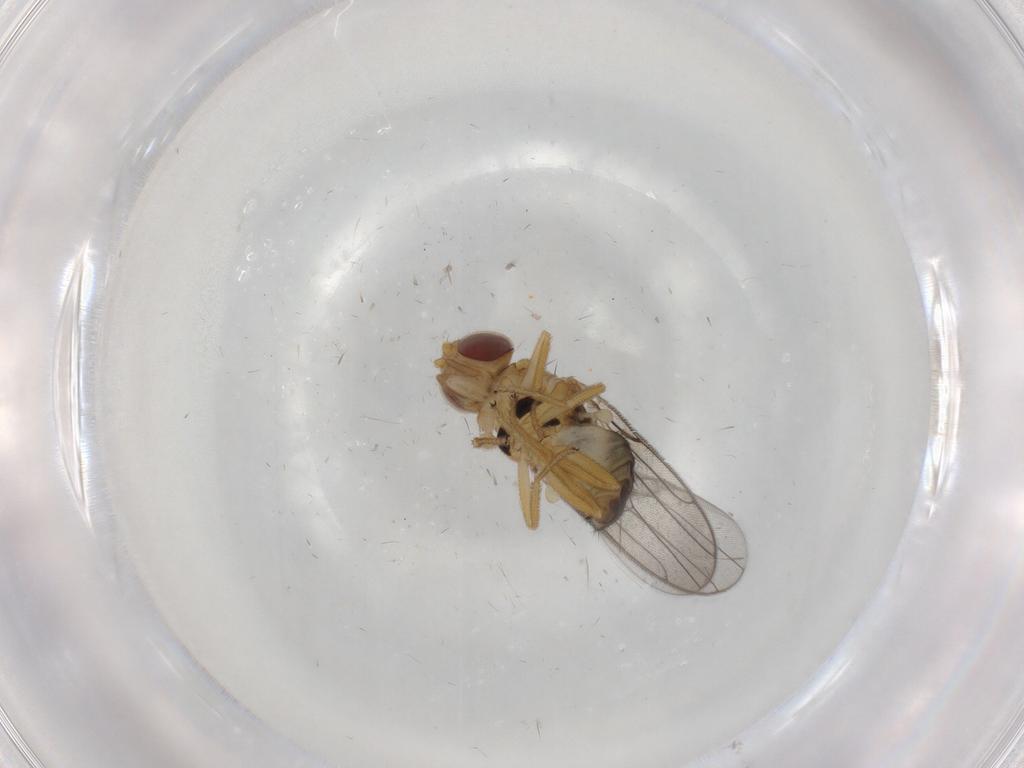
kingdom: Animalia
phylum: Arthropoda
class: Insecta
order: Diptera
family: Chloropidae
